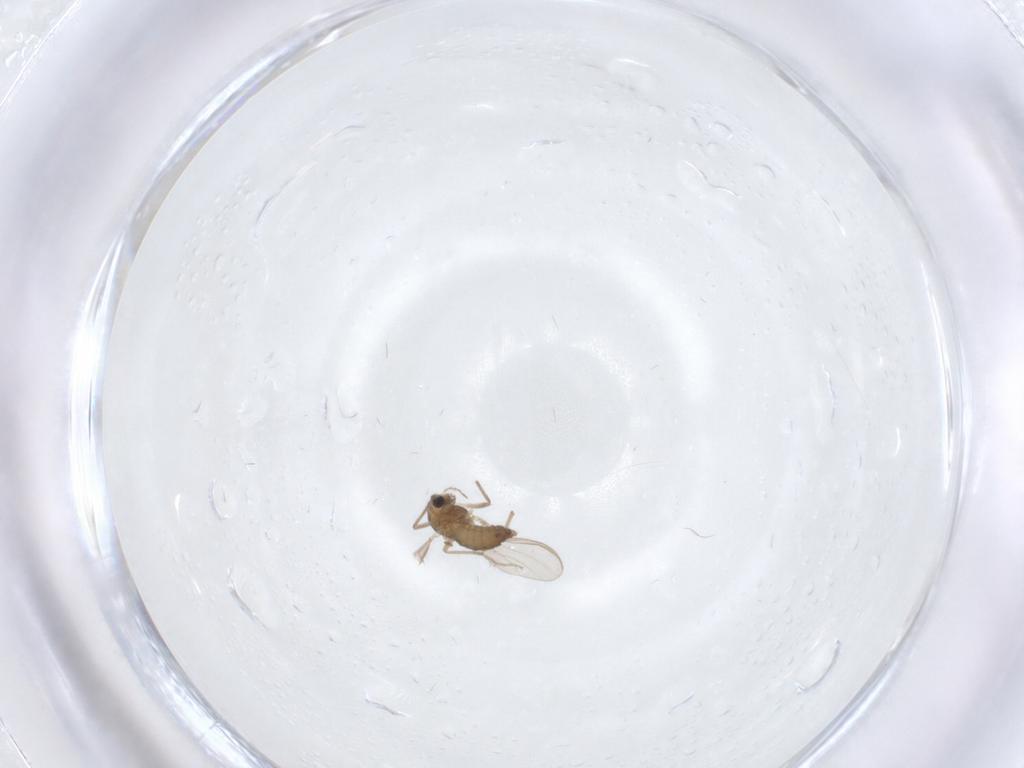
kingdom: Animalia
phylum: Arthropoda
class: Insecta
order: Diptera
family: Chironomidae
